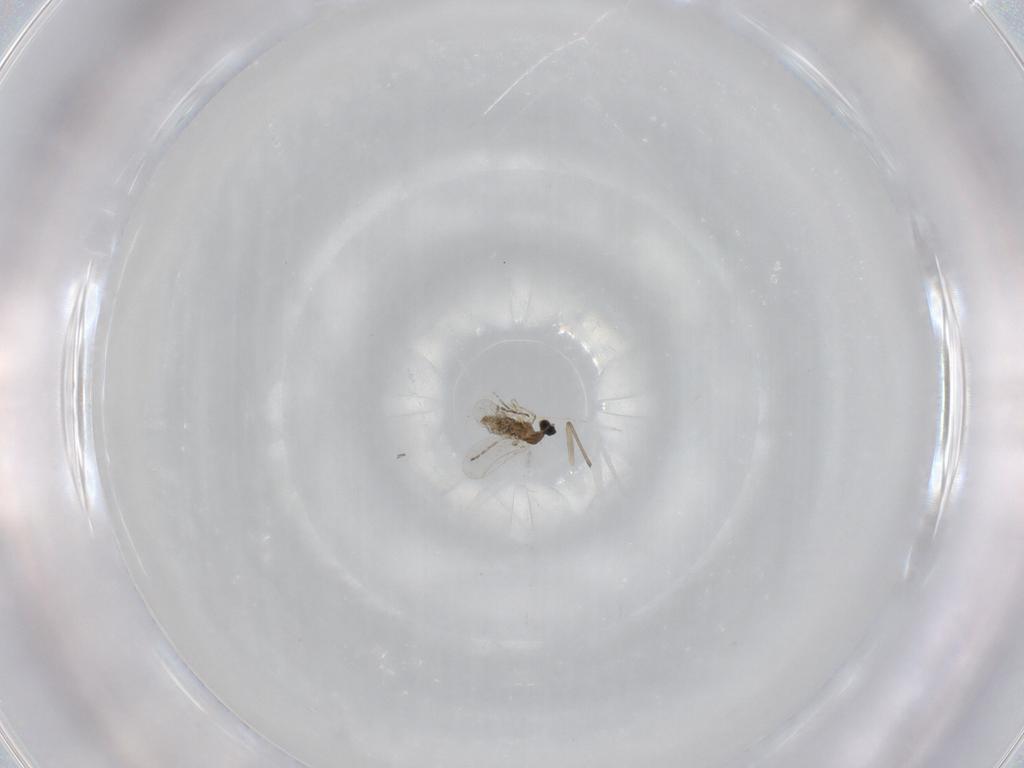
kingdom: Animalia
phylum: Arthropoda
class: Insecta
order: Diptera
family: Cecidomyiidae
